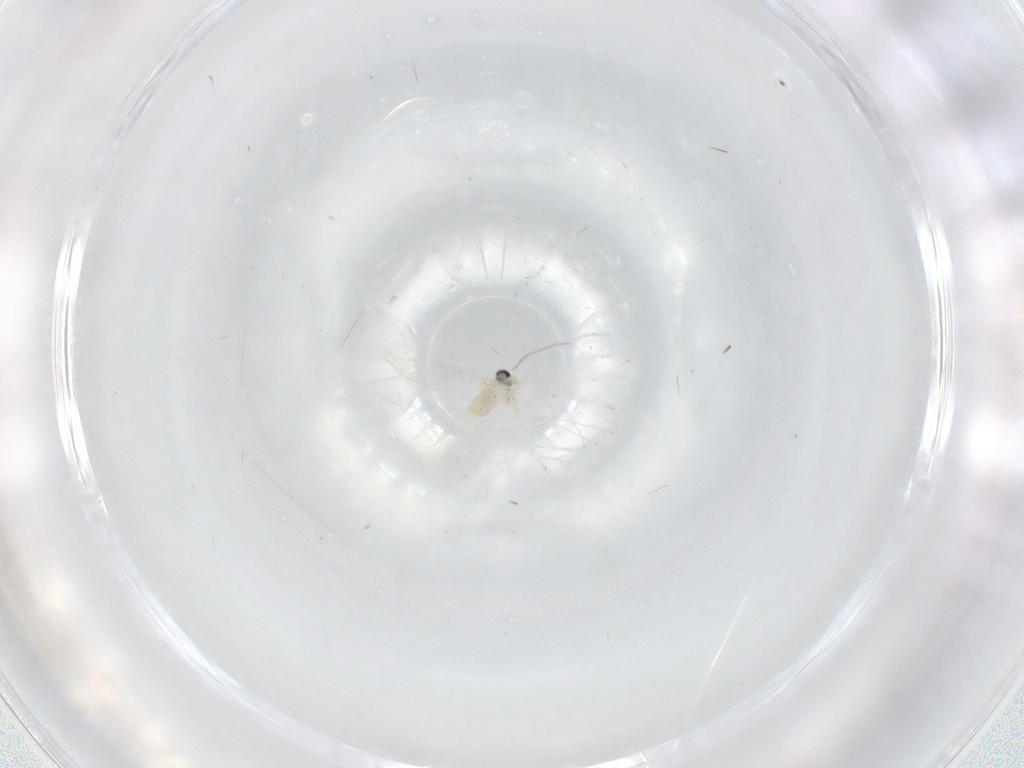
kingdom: Animalia
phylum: Arthropoda
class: Insecta
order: Diptera
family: Cecidomyiidae
